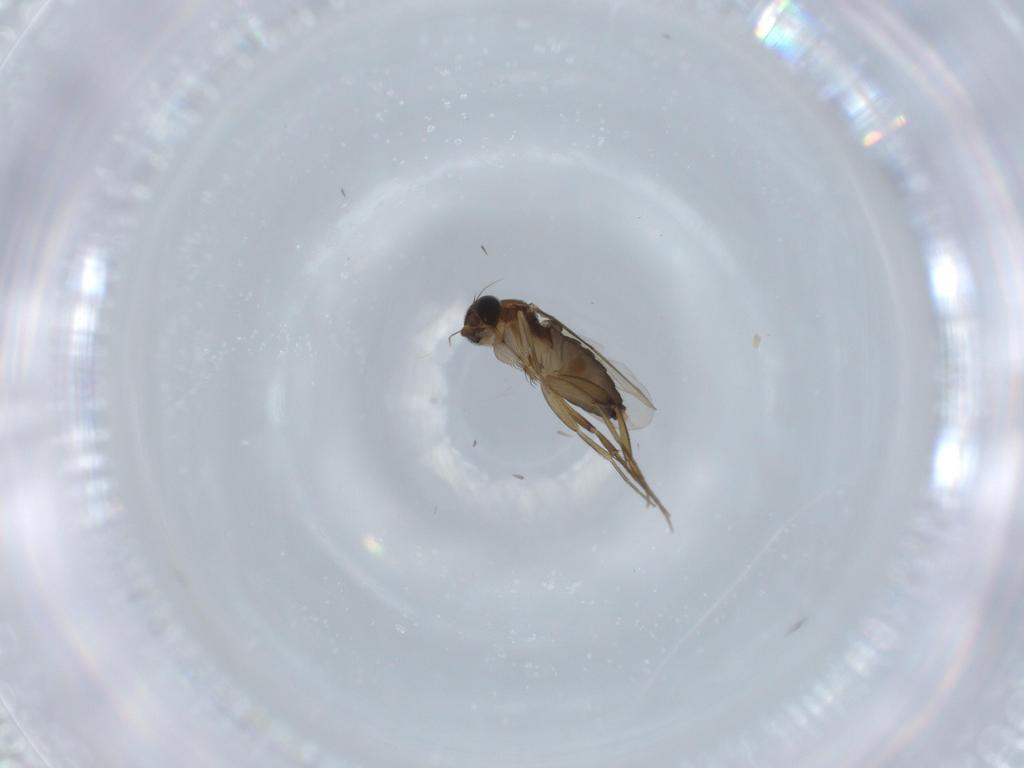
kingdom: Animalia
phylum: Arthropoda
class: Insecta
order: Diptera
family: Phoridae
